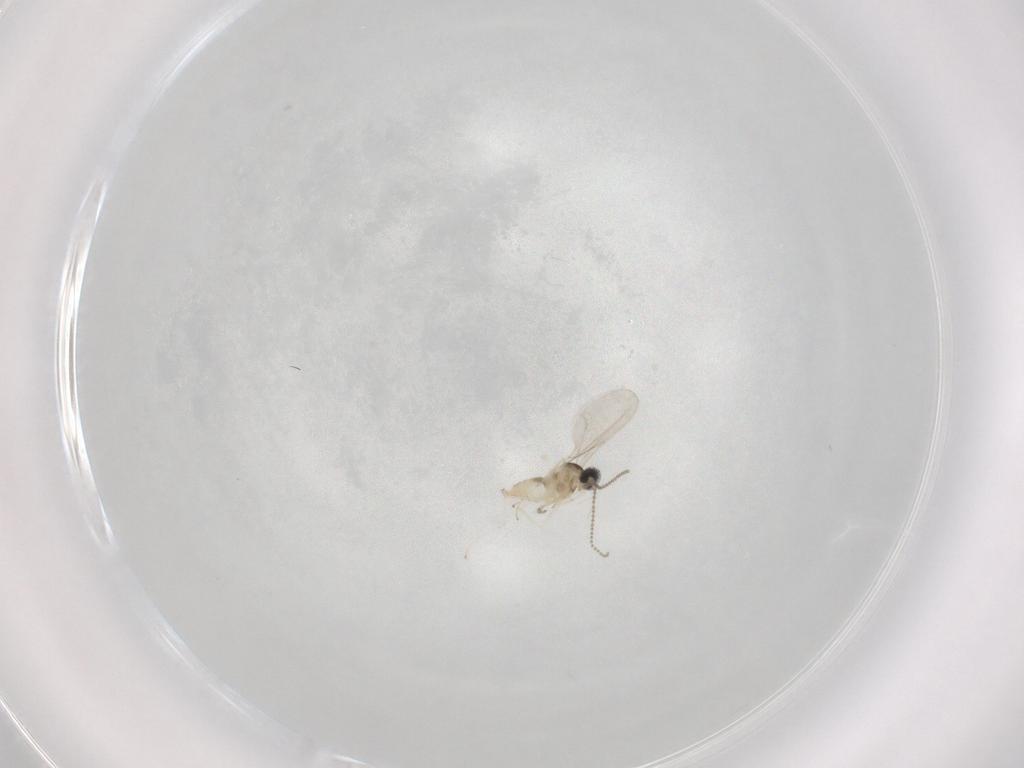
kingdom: Animalia
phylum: Arthropoda
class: Insecta
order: Diptera
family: Cecidomyiidae
